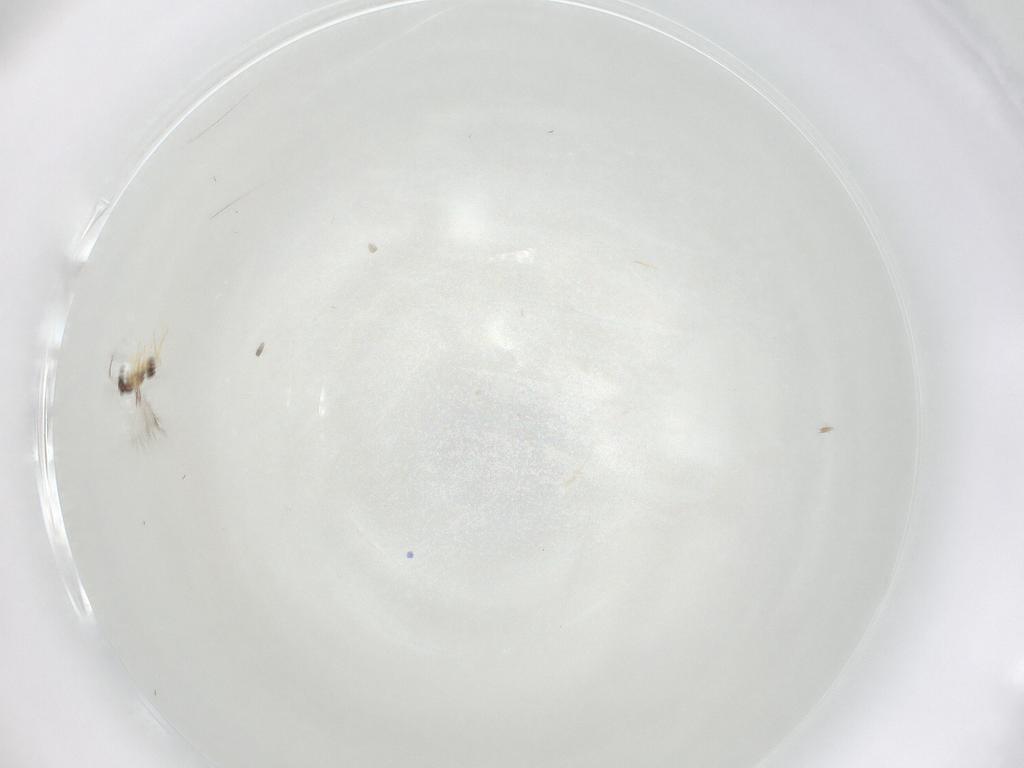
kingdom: Animalia
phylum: Arthropoda
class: Insecta
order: Hymenoptera
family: Mymaridae
